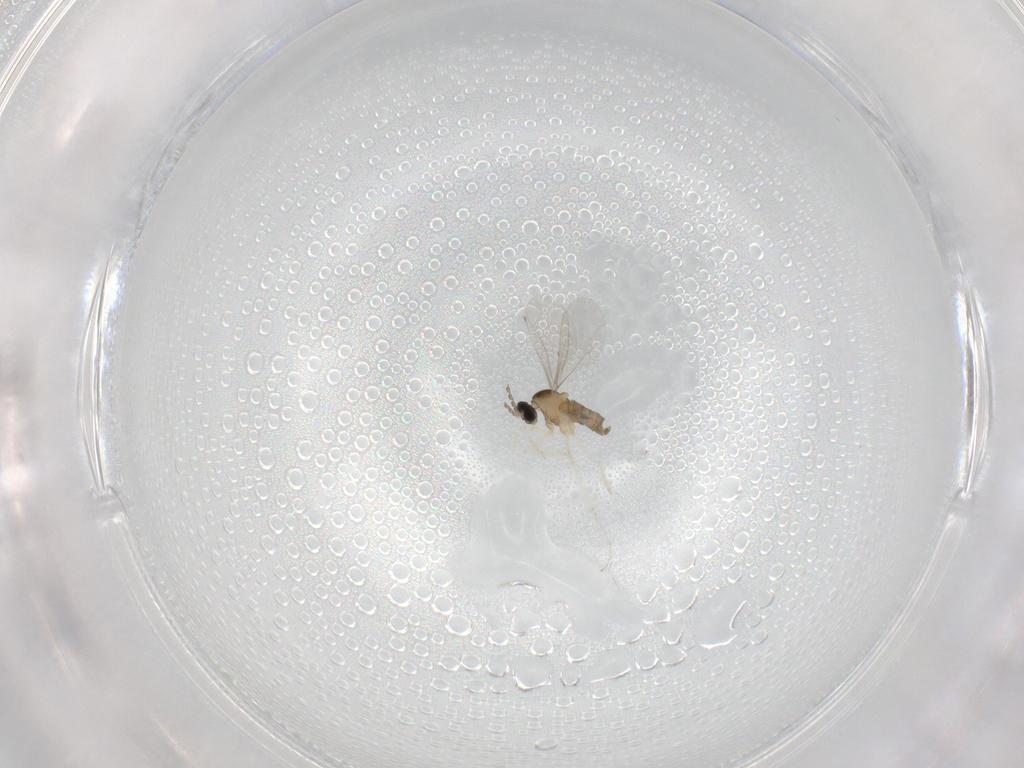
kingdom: Animalia
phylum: Arthropoda
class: Insecta
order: Diptera
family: Cecidomyiidae
